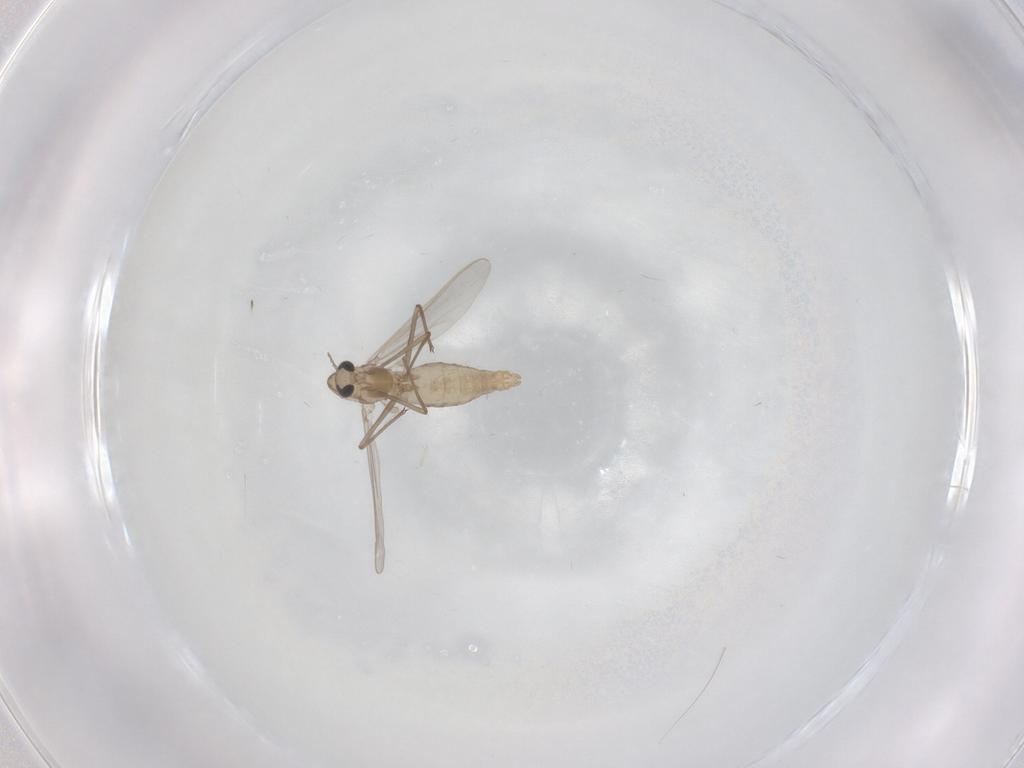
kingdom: Animalia
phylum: Arthropoda
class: Insecta
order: Diptera
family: Chironomidae
